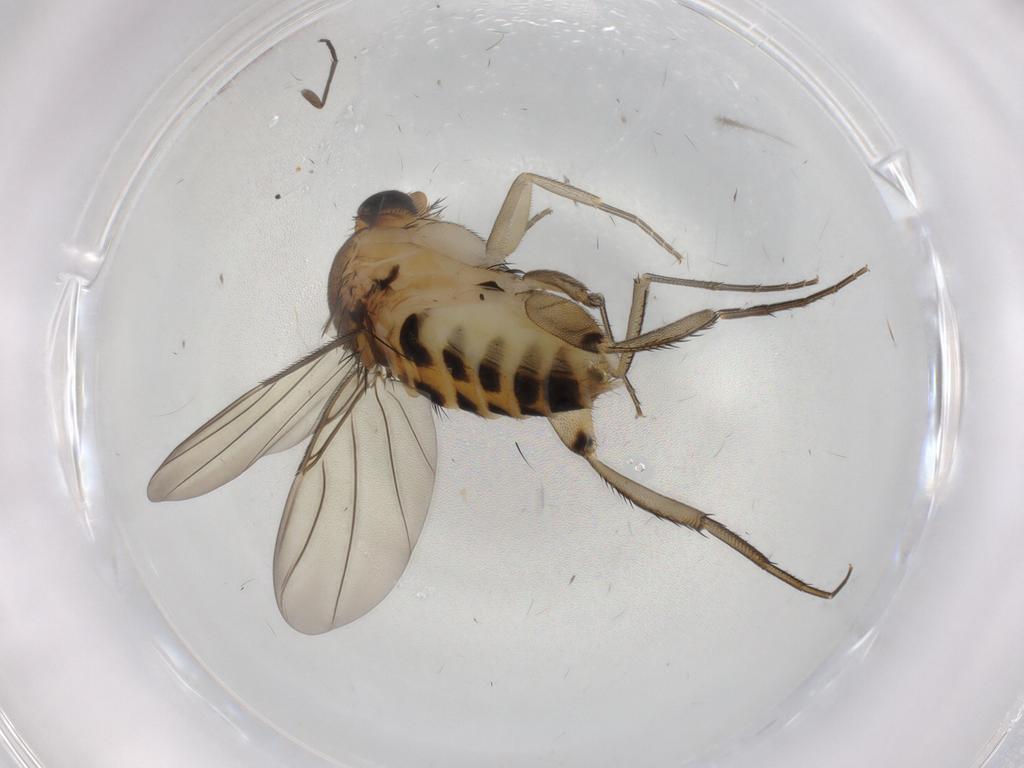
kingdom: Animalia
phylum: Arthropoda
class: Insecta
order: Diptera
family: Psychodidae
